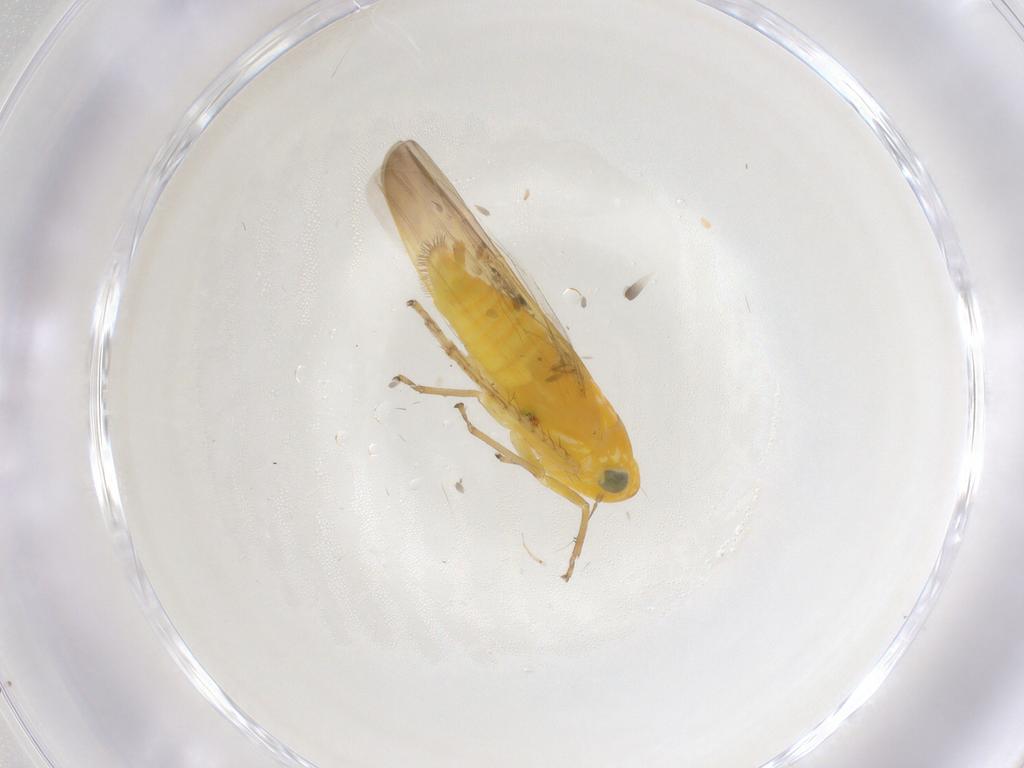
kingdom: Animalia
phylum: Arthropoda
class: Insecta
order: Hemiptera
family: Cicadellidae
